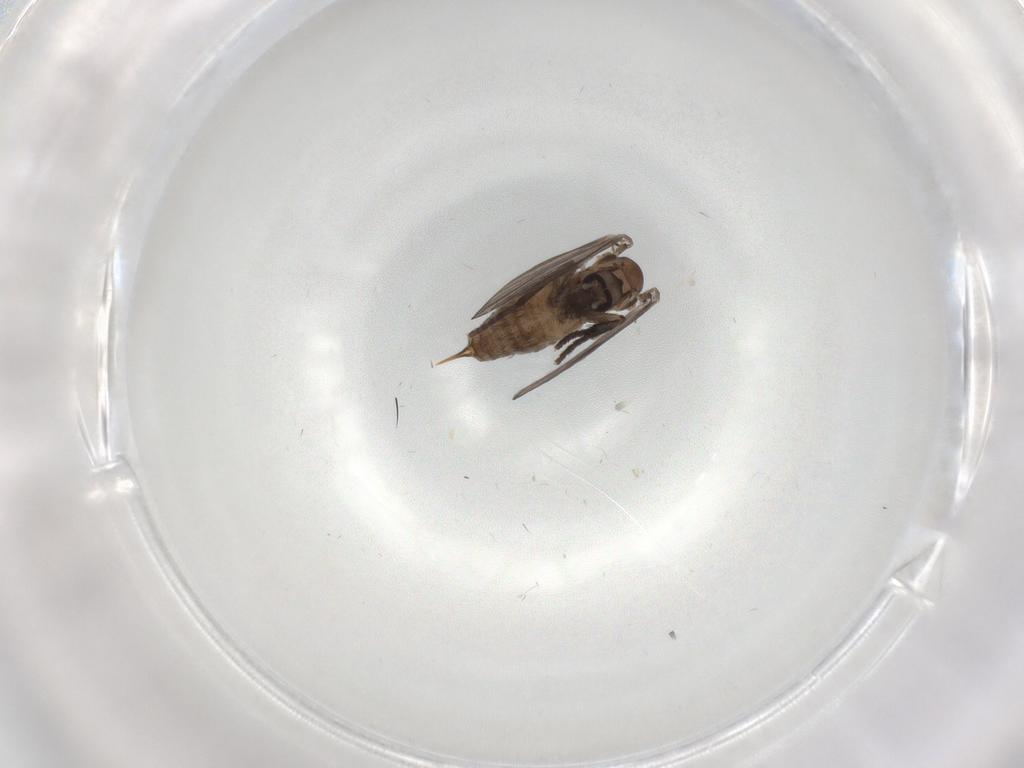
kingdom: Animalia
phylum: Arthropoda
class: Insecta
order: Diptera
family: Psychodidae
